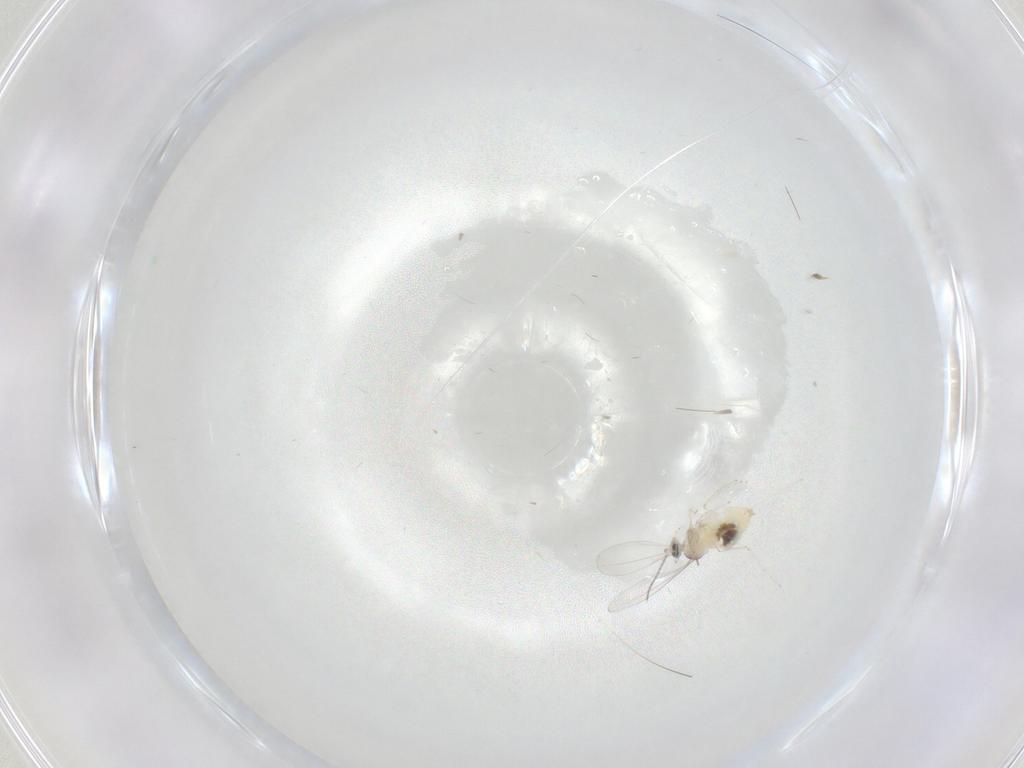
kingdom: Animalia
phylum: Arthropoda
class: Insecta
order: Diptera
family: Cecidomyiidae
